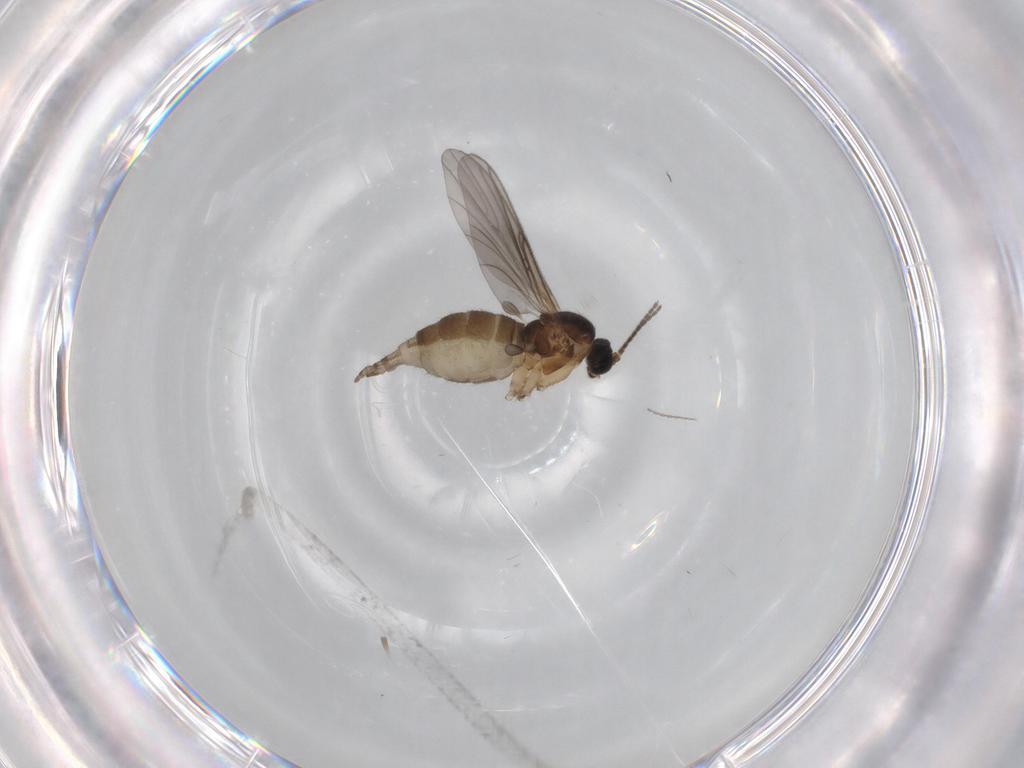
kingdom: Animalia
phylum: Arthropoda
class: Insecta
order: Diptera
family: Sciaridae
